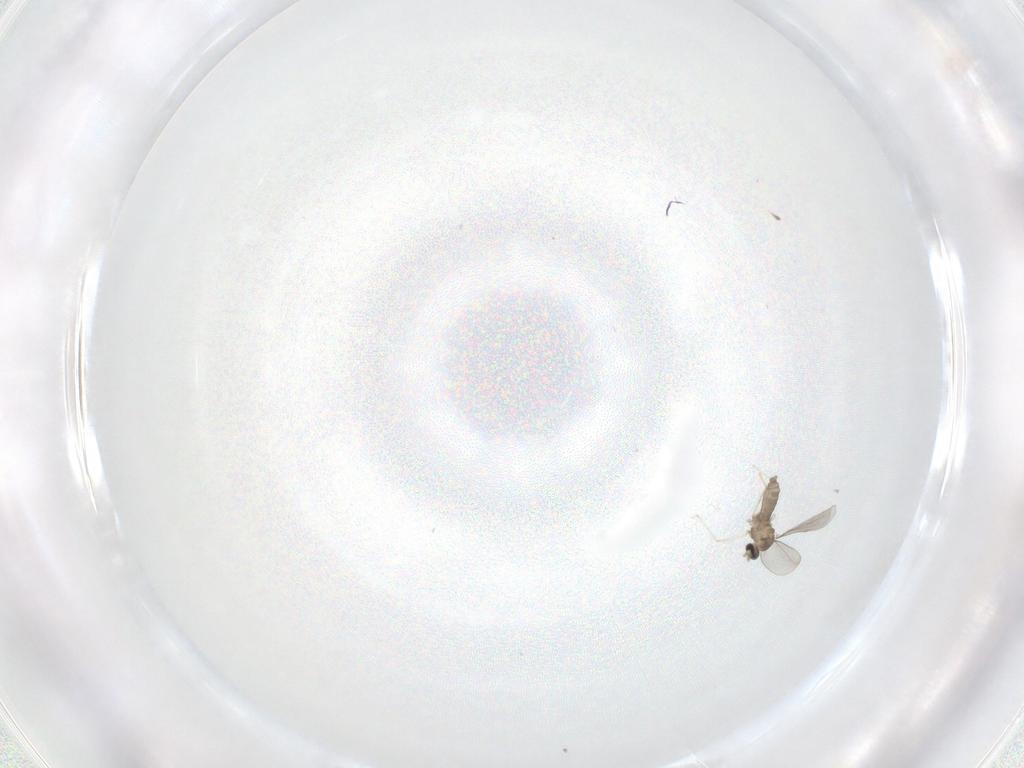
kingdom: Animalia
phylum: Arthropoda
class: Insecta
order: Diptera
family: Cecidomyiidae
